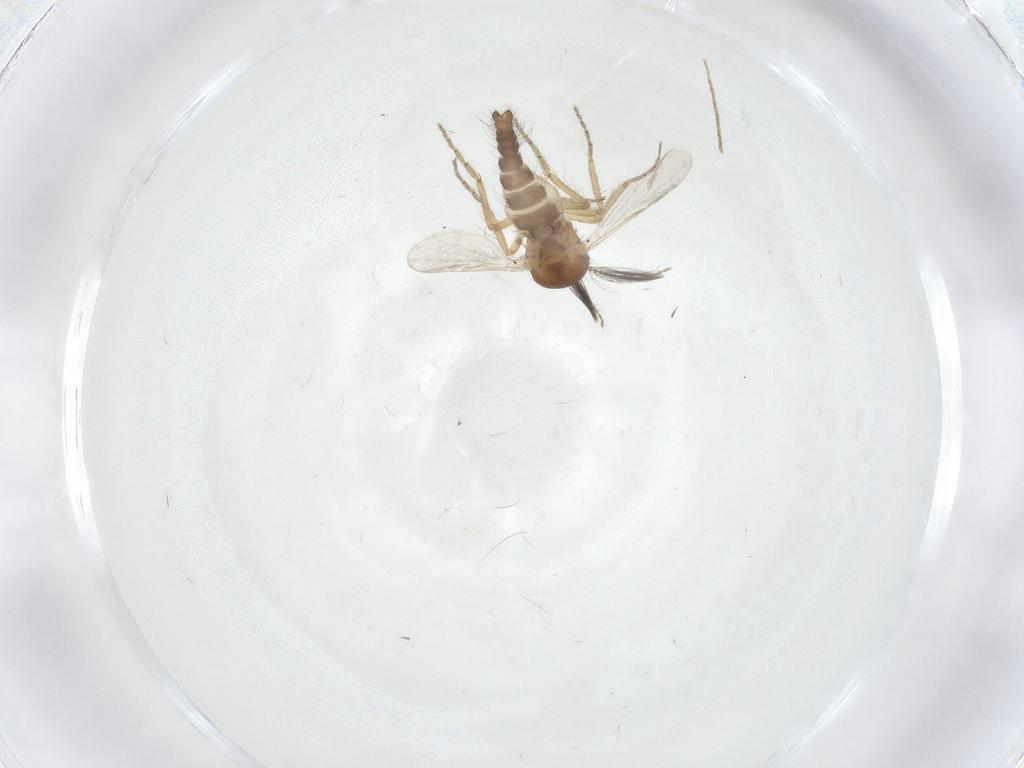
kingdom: Animalia
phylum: Arthropoda
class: Insecta
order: Diptera
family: Ceratopogonidae
